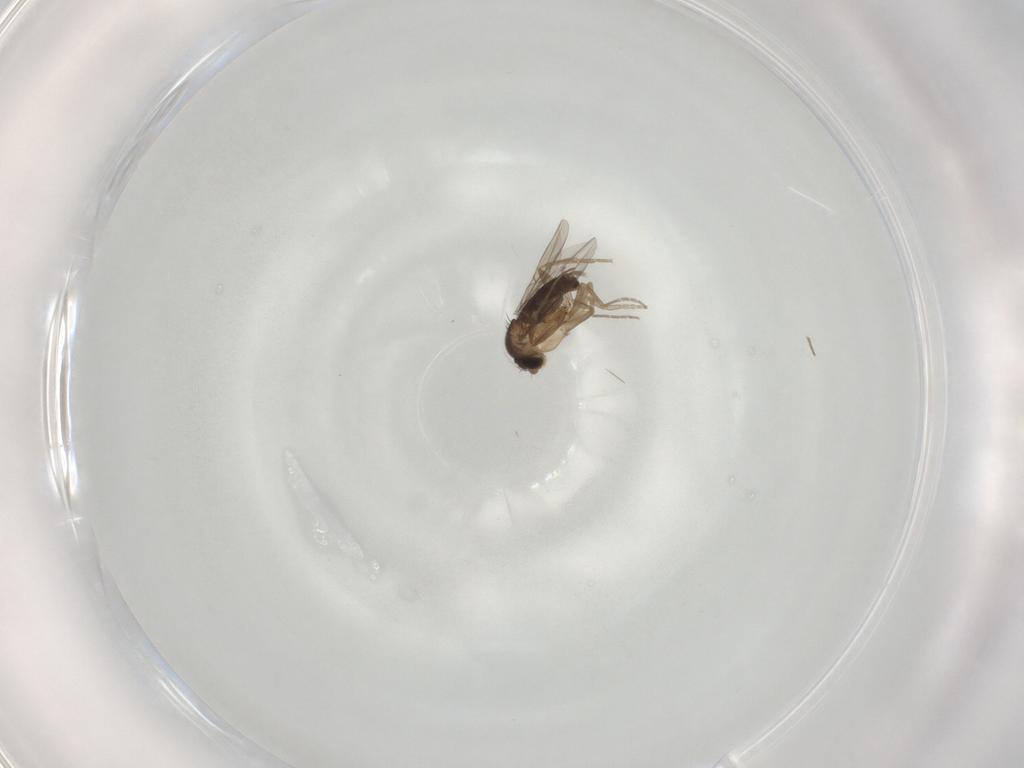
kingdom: Animalia
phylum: Arthropoda
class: Insecta
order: Diptera
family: Phoridae
